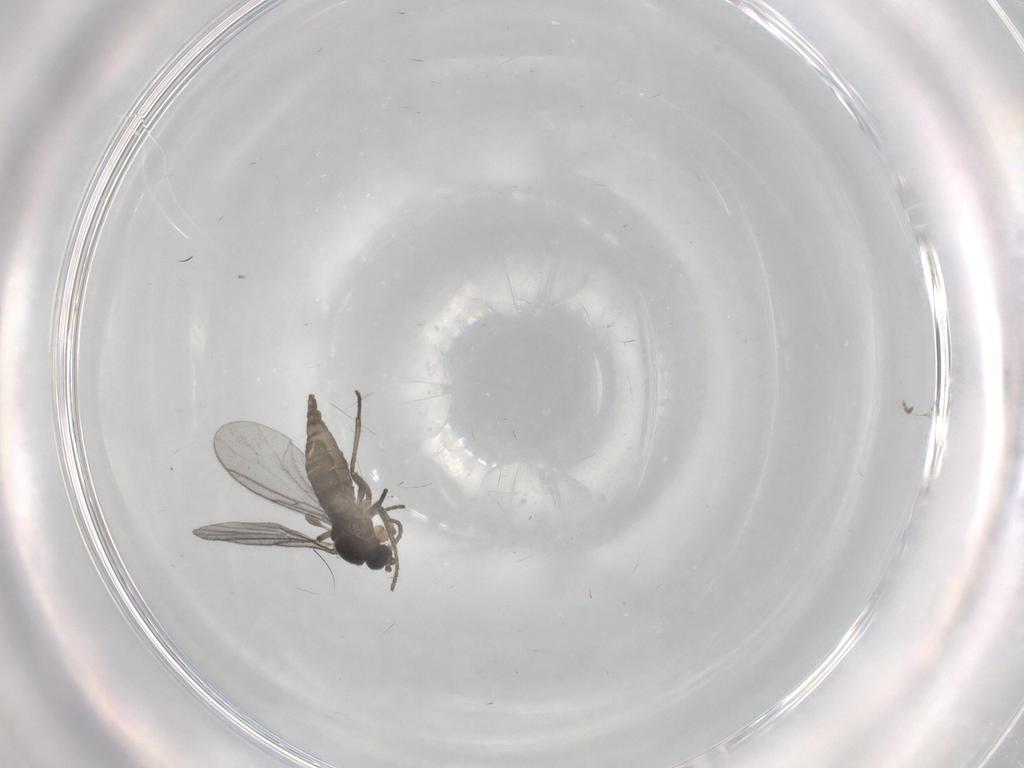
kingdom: Animalia
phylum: Arthropoda
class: Insecta
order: Diptera
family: Cecidomyiidae
